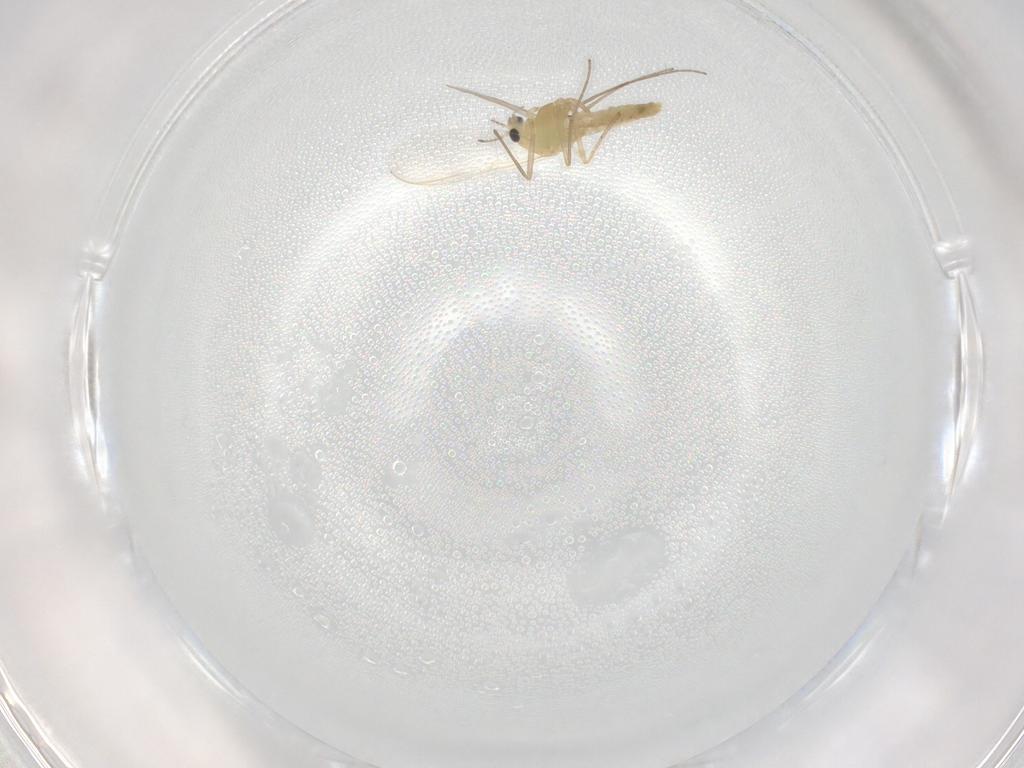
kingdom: Animalia
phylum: Arthropoda
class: Insecta
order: Diptera
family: Chironomidae
